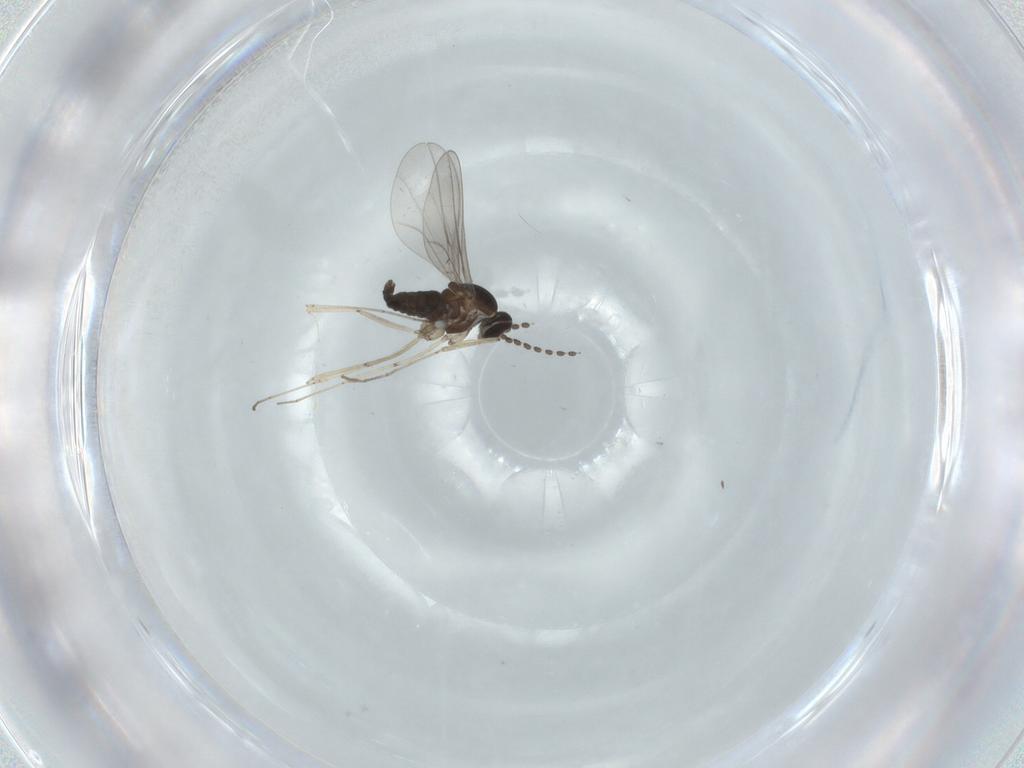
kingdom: Animalia
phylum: Arthropoda
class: Insecta
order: Diptera
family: Cecidomyiidae
